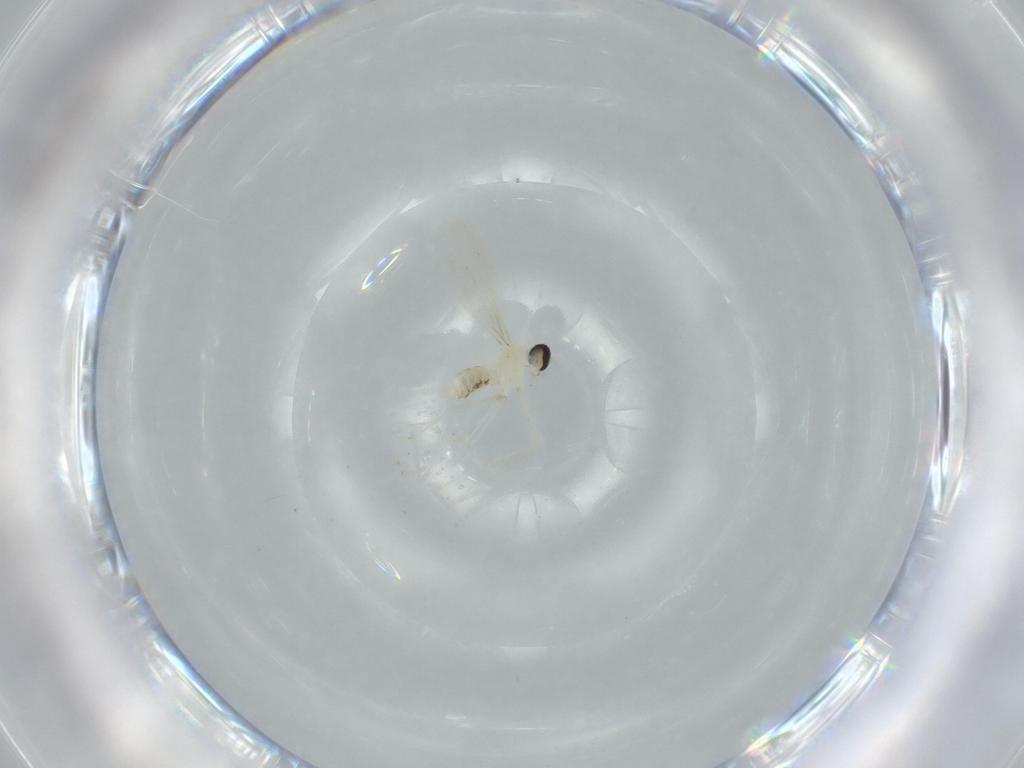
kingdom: Animalia
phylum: Arthropoda
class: Insecta
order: Diptera
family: Cecidomyiidae
